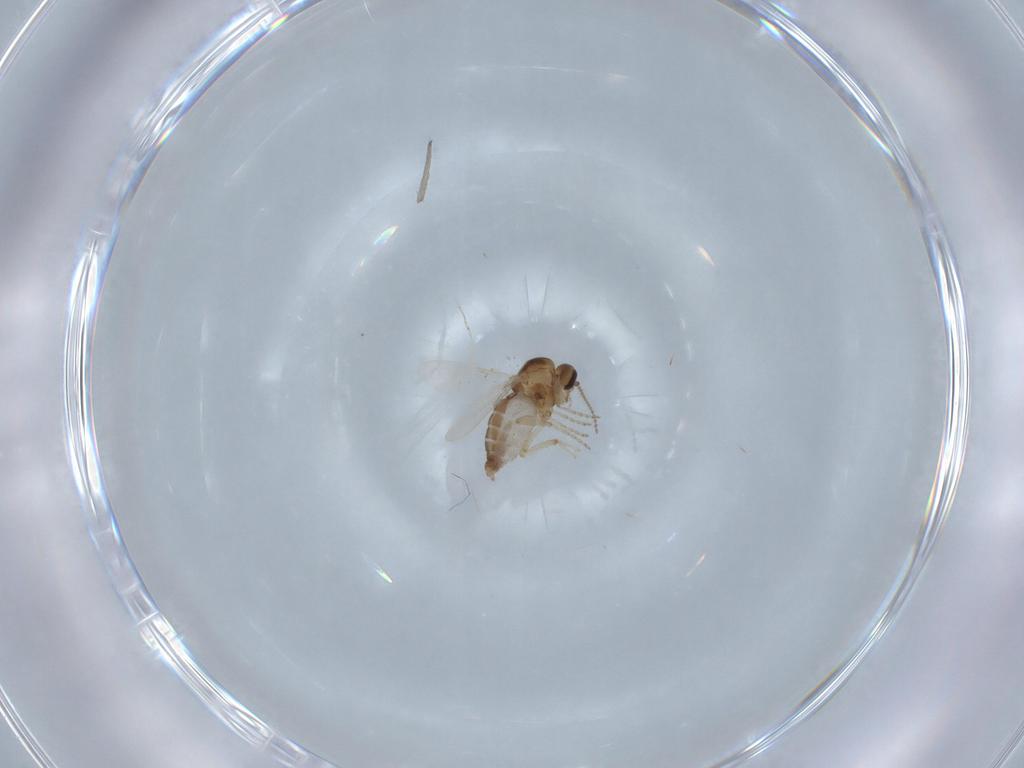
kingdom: Animalia
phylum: Arthropoda
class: Insecta
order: Diptera
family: Ceratopogonidae
